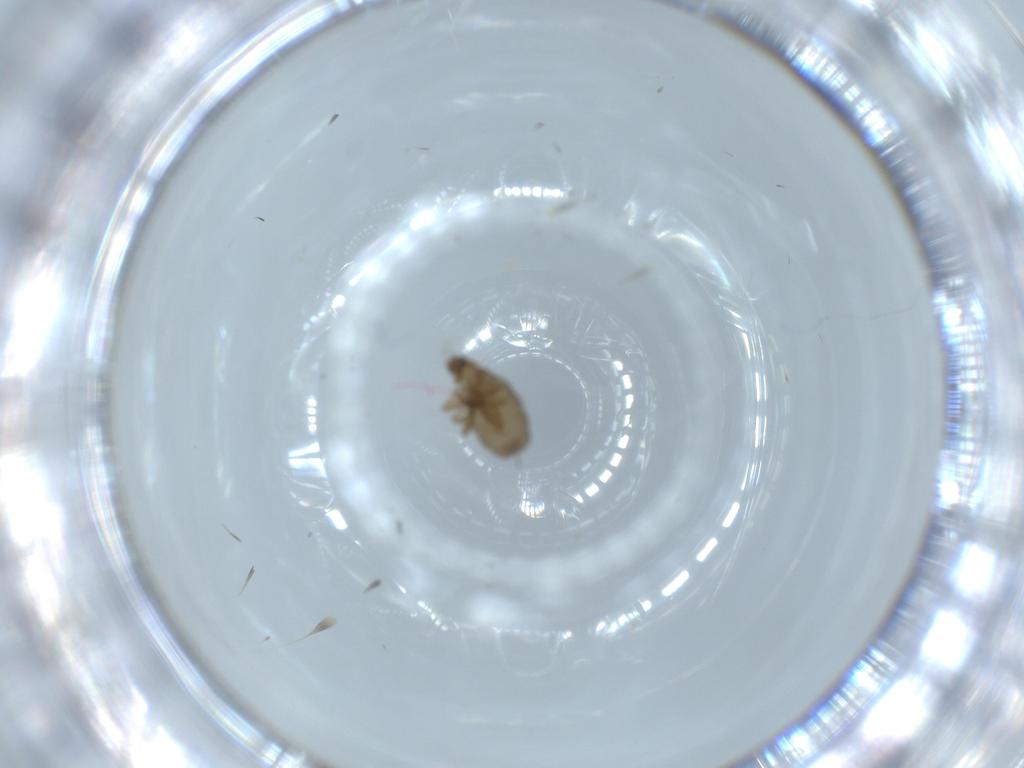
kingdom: Animalia
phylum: Arthropoda
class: Insecta
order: Diptera
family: Phoridae
